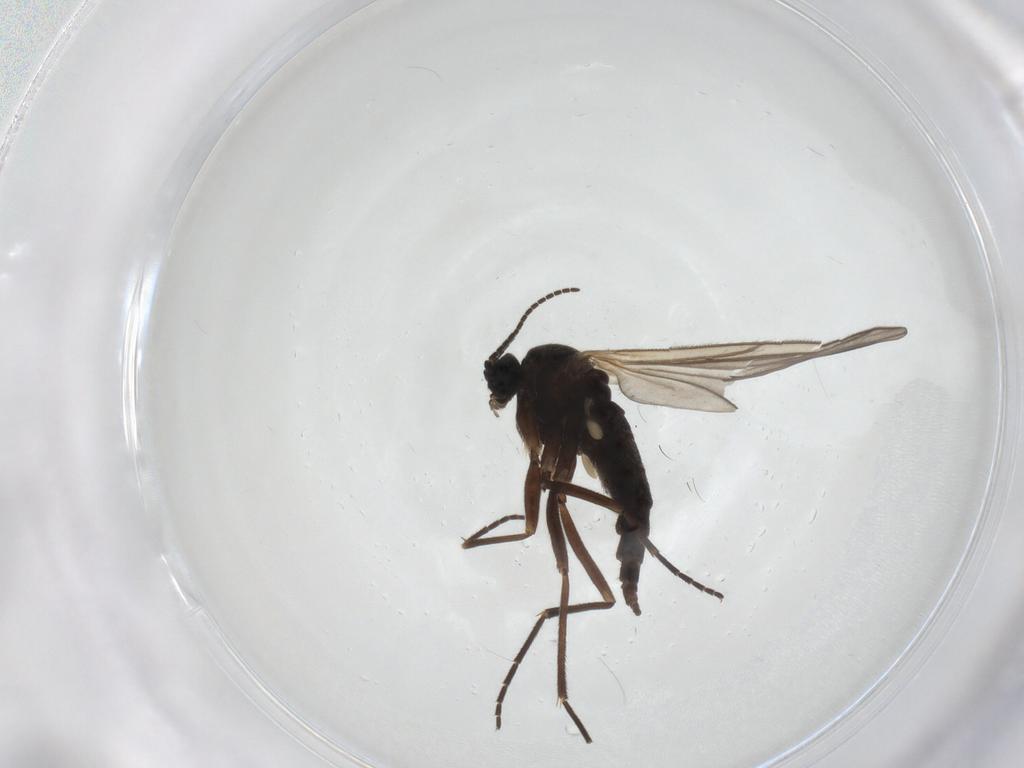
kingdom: Animalia
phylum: Arthropoda
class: Insecta
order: Diptera
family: Sciaridae
